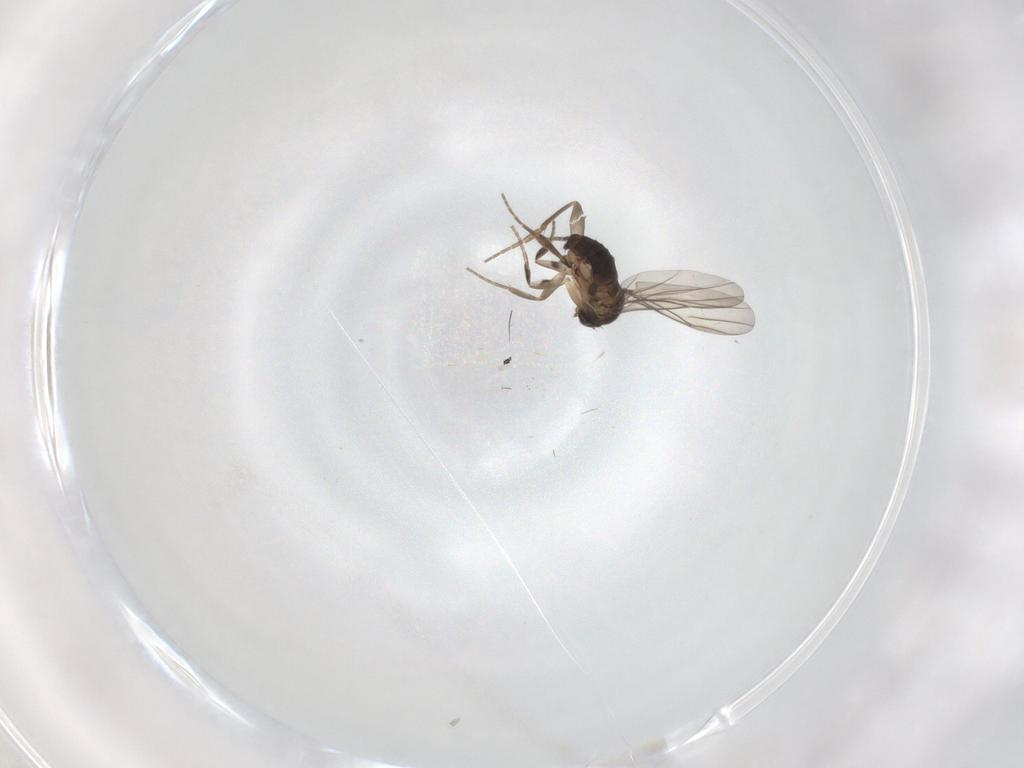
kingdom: Animalia
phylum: Arthropoda
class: Insecta
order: Diptera
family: Phoridae
